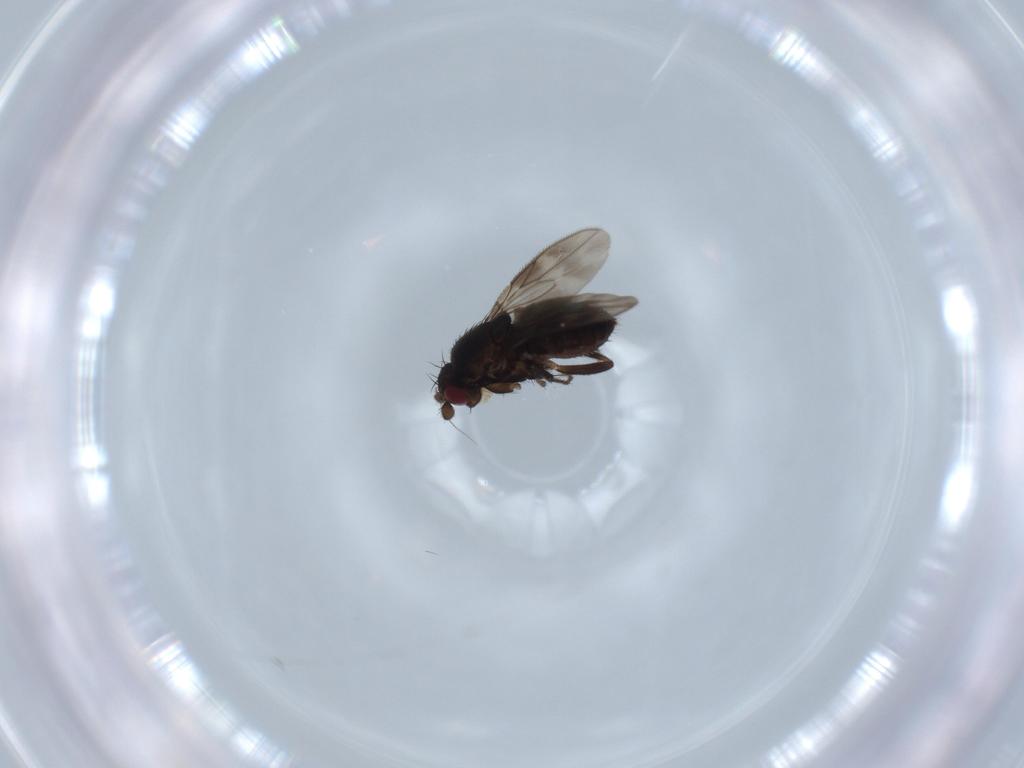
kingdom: Animalia
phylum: Arthropoda
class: Insecta
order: Diptera
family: Sphaeroceridae
